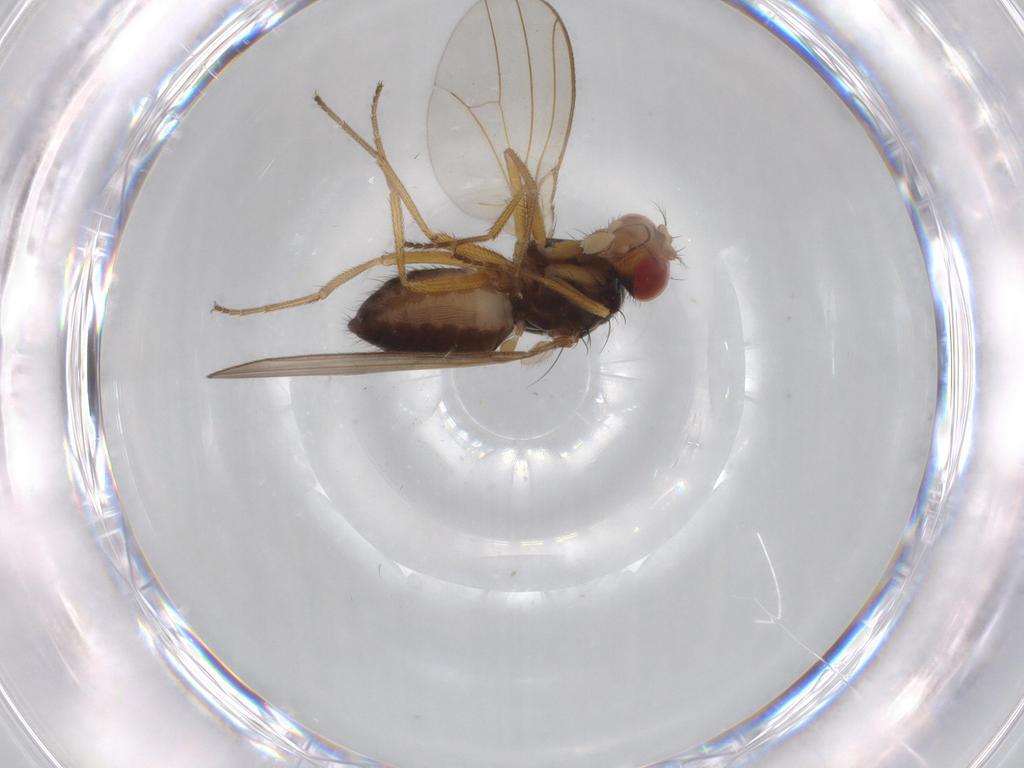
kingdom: Animalia
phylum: Arthropoda
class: Insecta
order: Diptera
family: Drosophilidae
